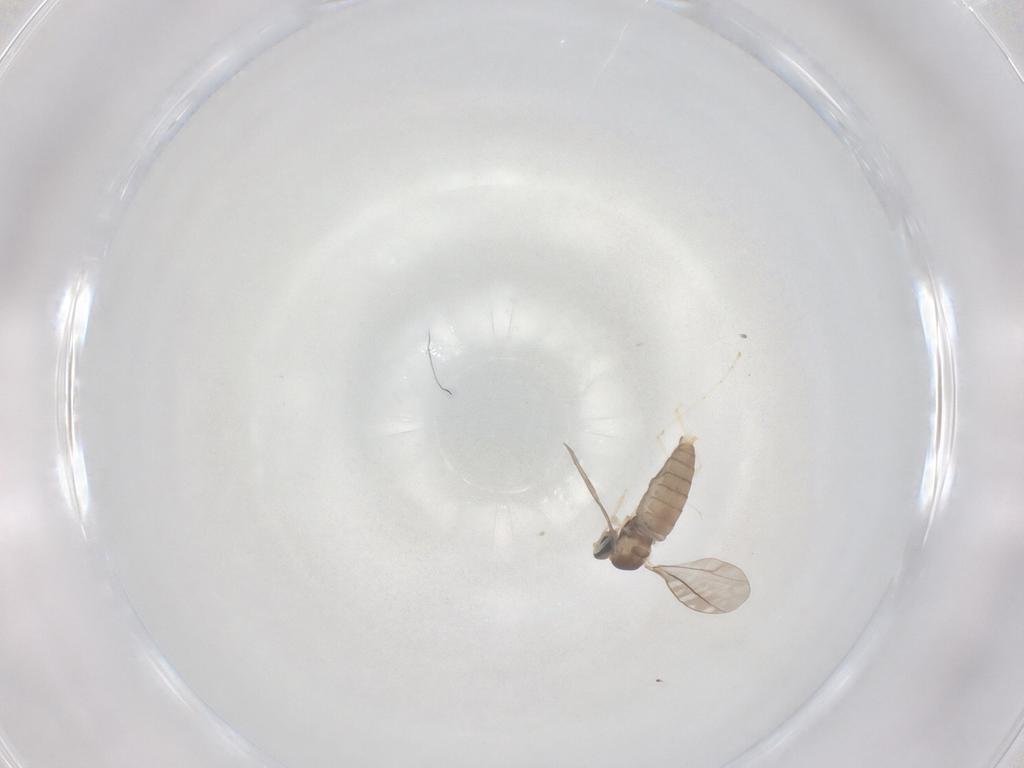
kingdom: Animalia
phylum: Arthropoda
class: Insecta
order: Diptera
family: Cecidomyiidae
